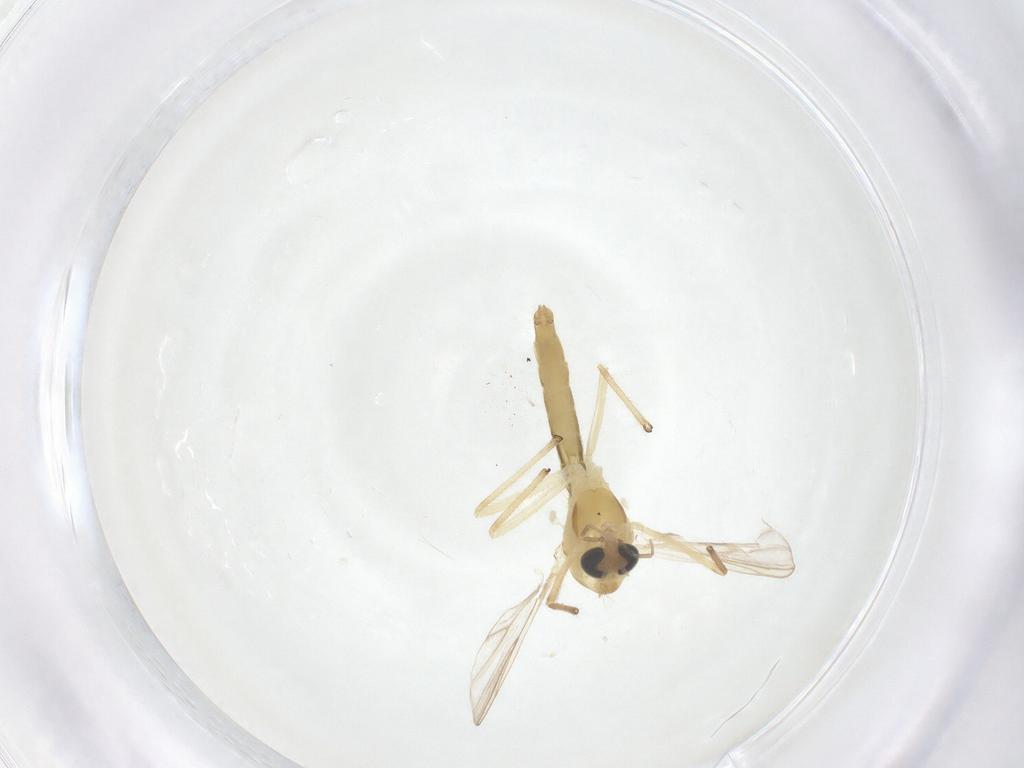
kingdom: Animalia
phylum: Arthropoda
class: Insecta
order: Diptera
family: Chironomidae
